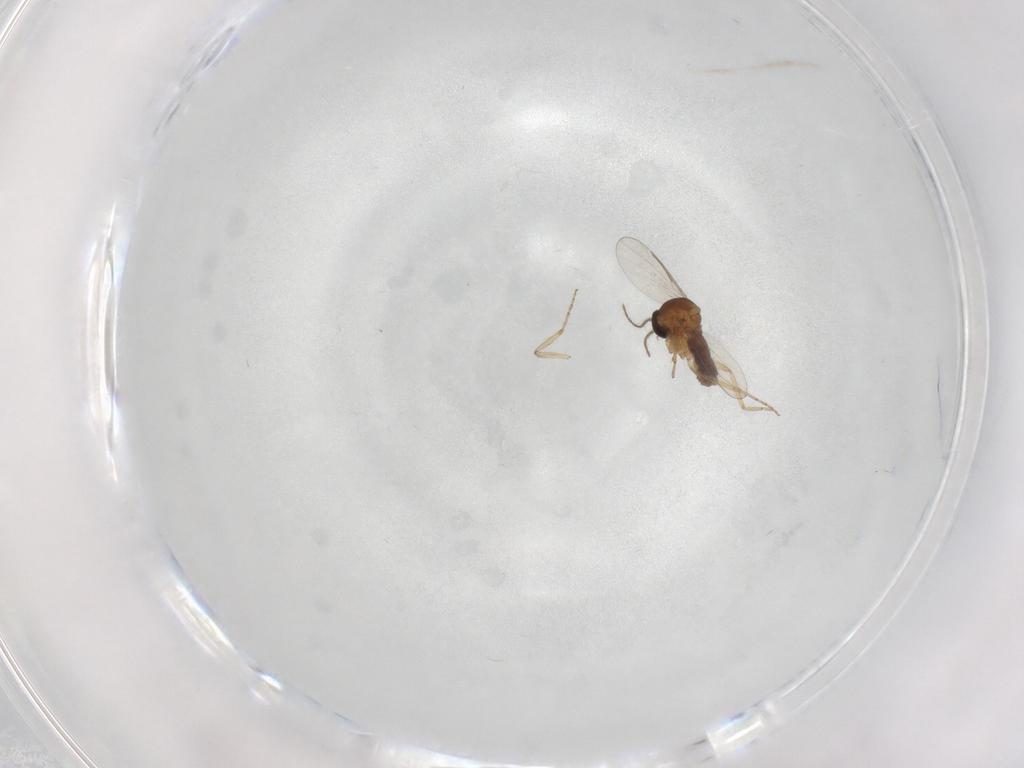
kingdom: Animalia
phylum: Arthropoda
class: Insecta
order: Diptera
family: Ceratopogonidae
